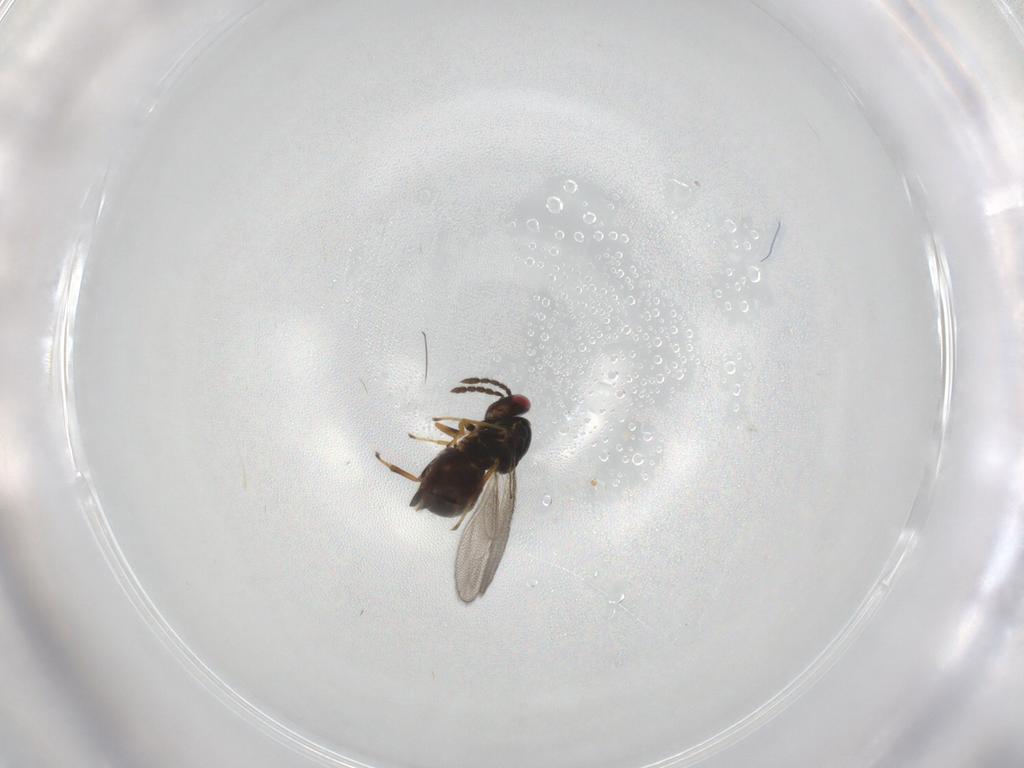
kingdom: Animalia
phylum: Arthropoda
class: Insecta
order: Hymenoptera
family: Eulophidae
